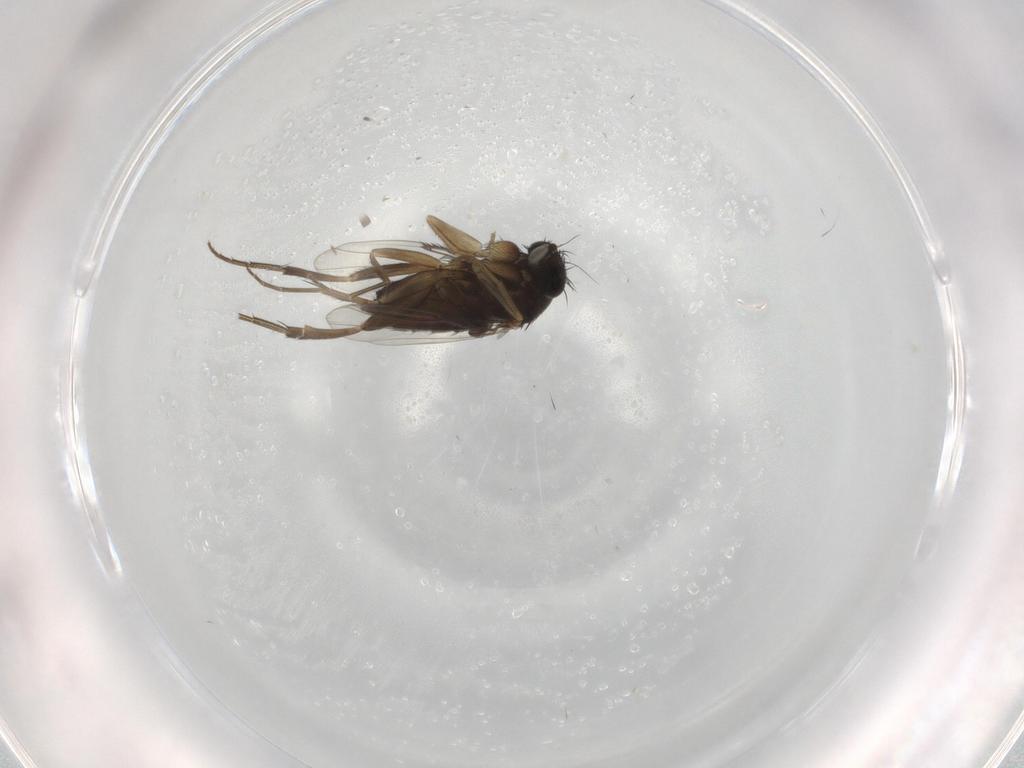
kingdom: Animalia
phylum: Arthropoda
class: Insecta
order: Diptera
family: Phoridae
